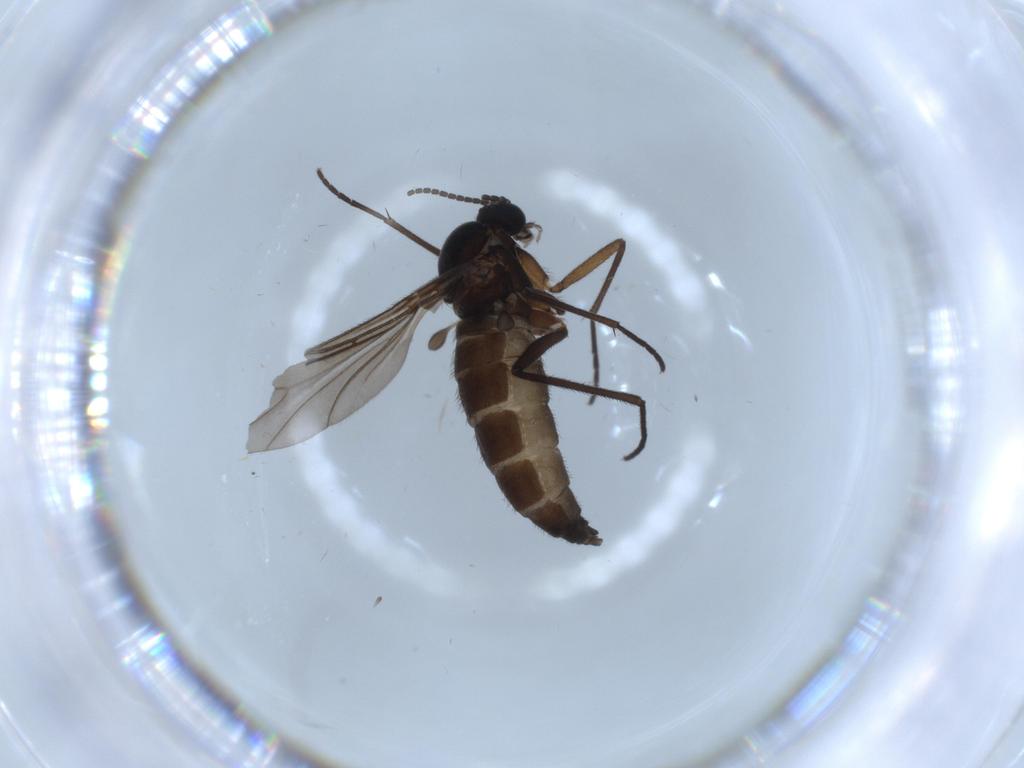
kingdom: Animalia
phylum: Arthropoda
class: Insecta
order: Diptera
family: Sciaridae
